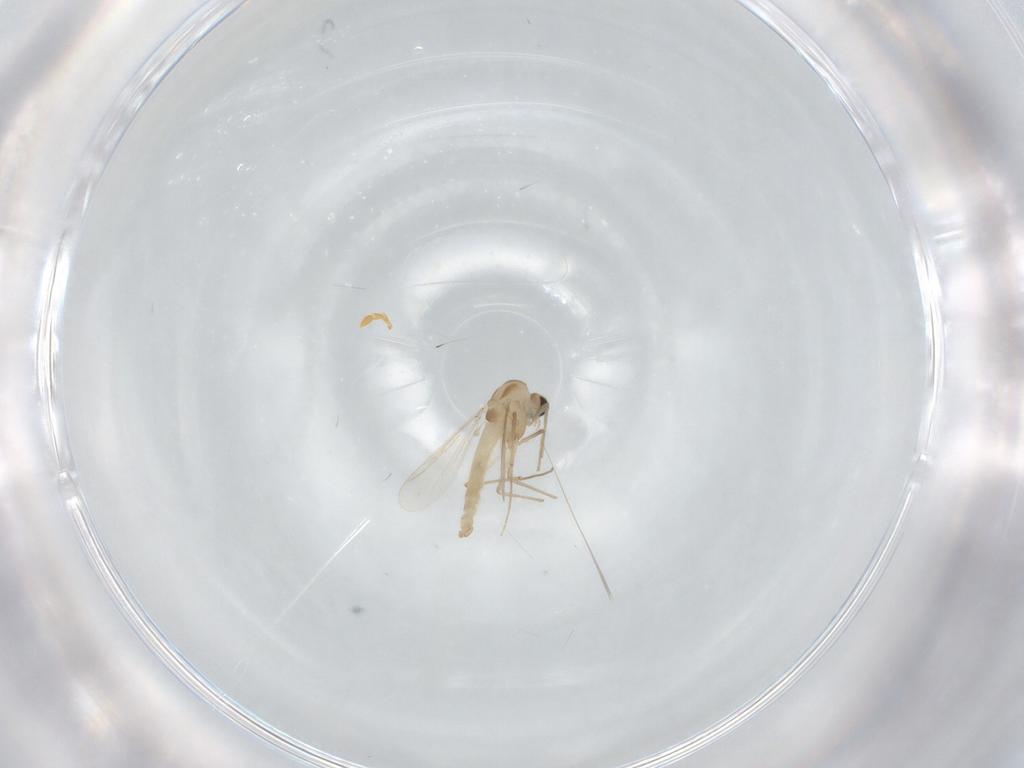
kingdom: Animalia
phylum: Arthropoda
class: Insecta
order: Diptera
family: Chironomidae
